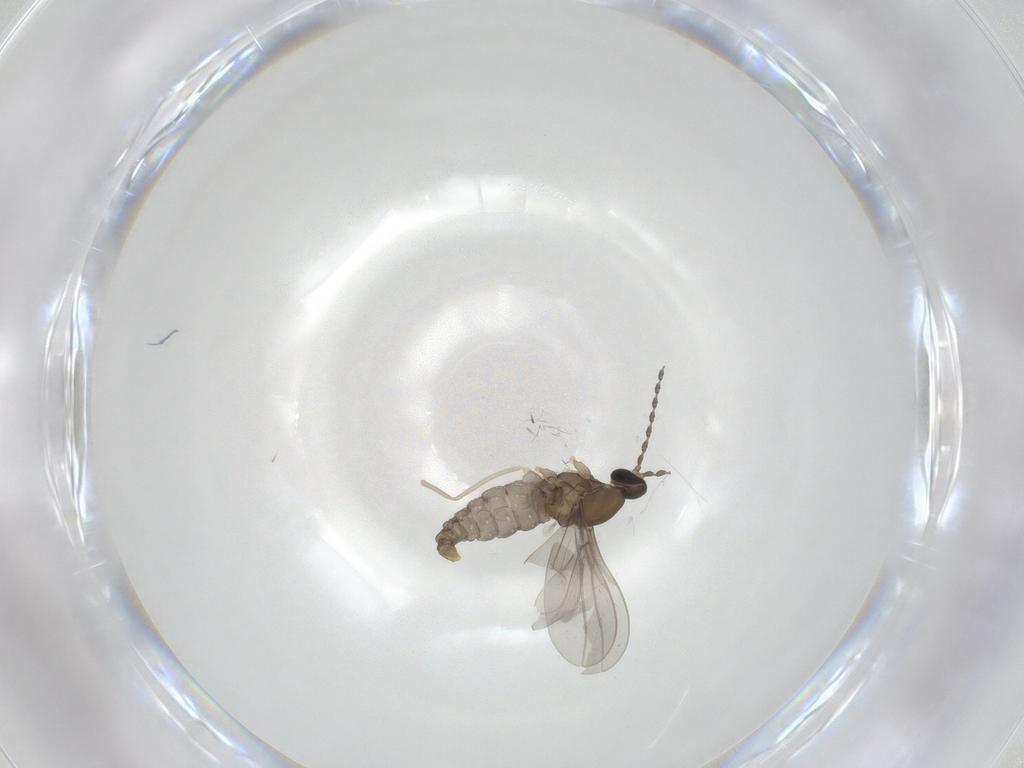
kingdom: Animalia
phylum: Arthropoda
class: Insecta
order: Diptera
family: Cecidomyiidae
